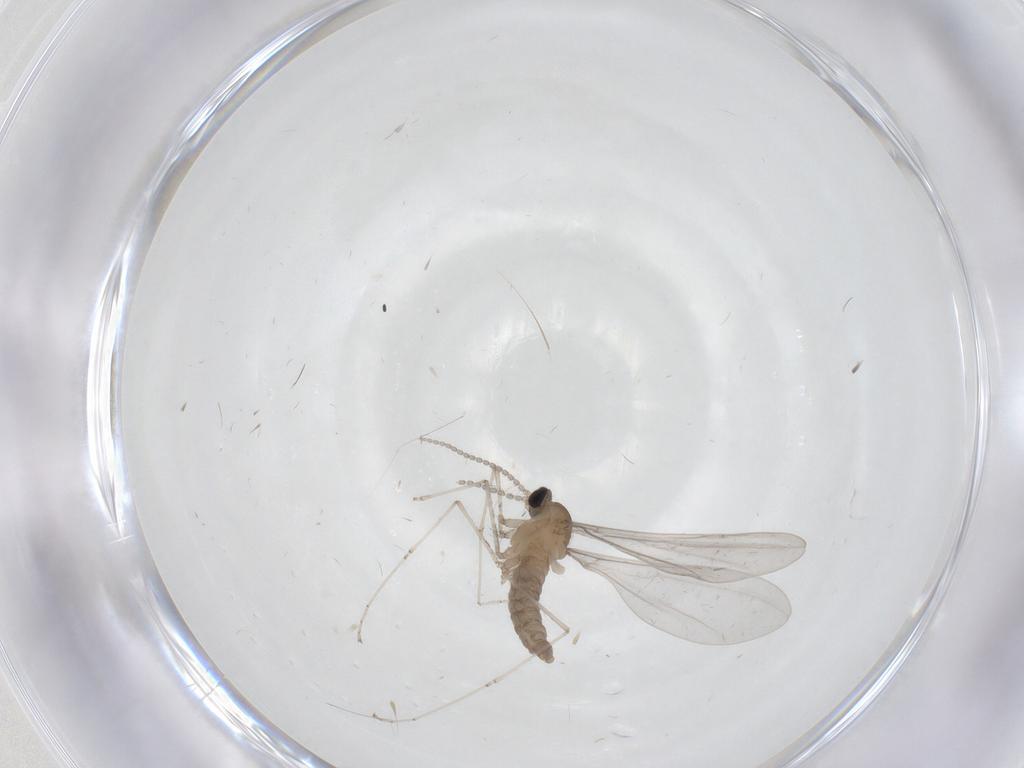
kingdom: Animalia
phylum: Arthropoda
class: Insecta
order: Diptera
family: Cecidomyiidae
